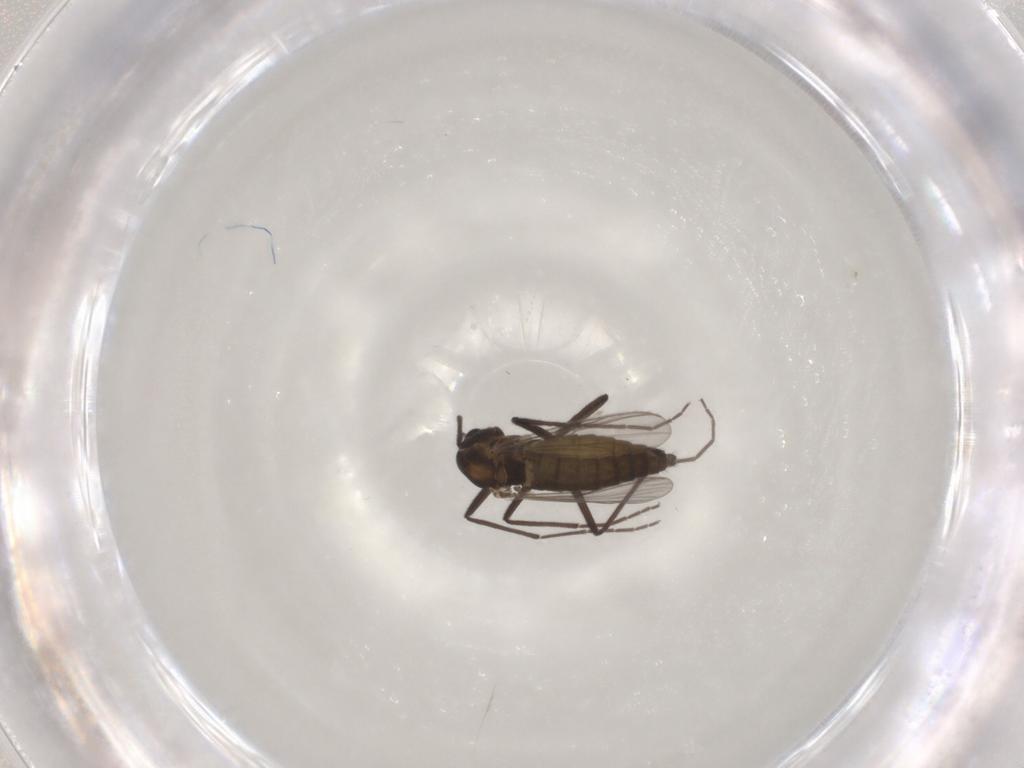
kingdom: Animalia
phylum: Arthropoda
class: Insecta
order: Diptera
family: Chironomidae
